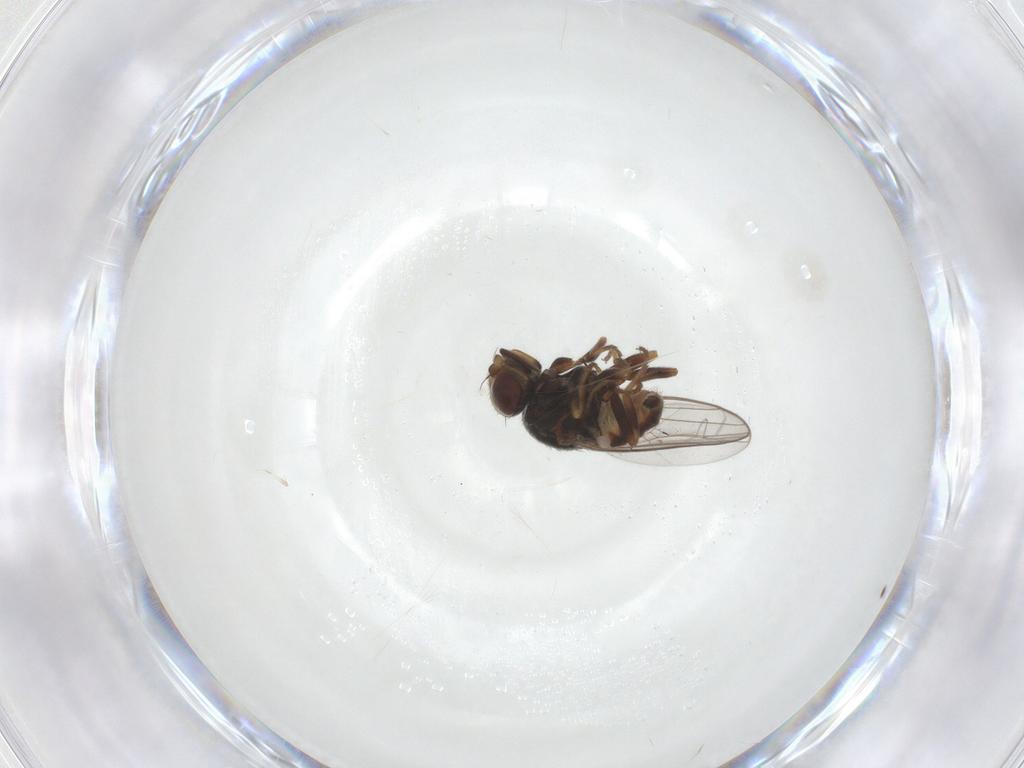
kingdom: Animalia
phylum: Arthropoda
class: Insecta
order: Diptera
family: Chloropidae
